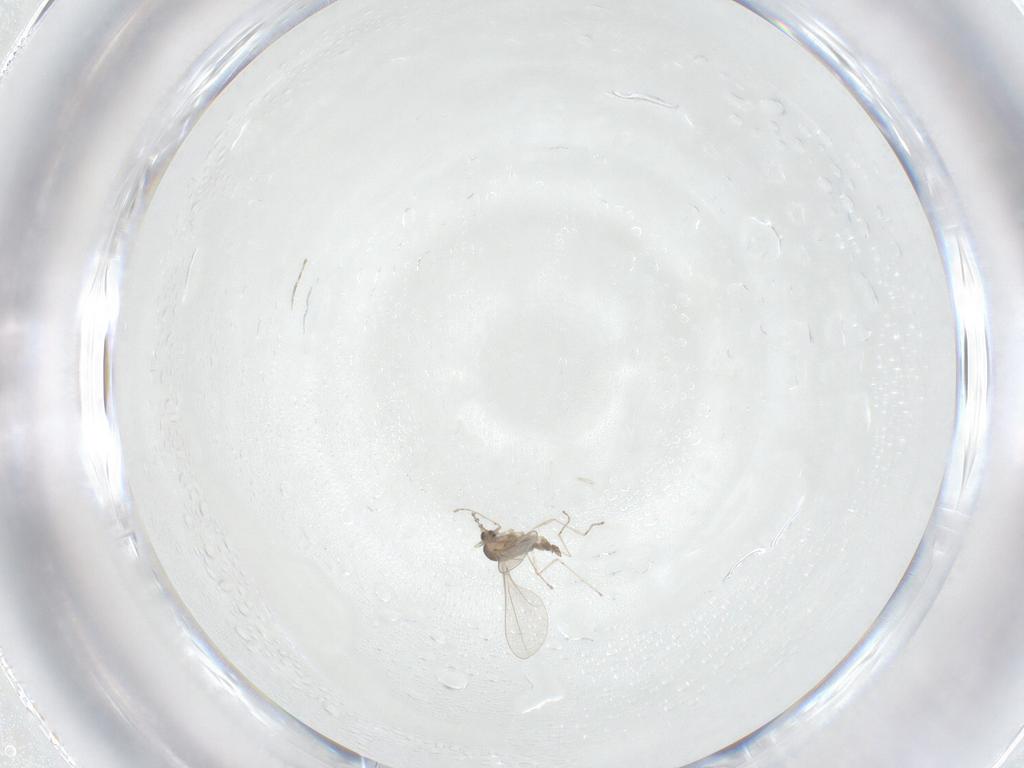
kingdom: Animalia
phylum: Arthropoda
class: Insecta
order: Diptera
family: Cecidomyiidae
